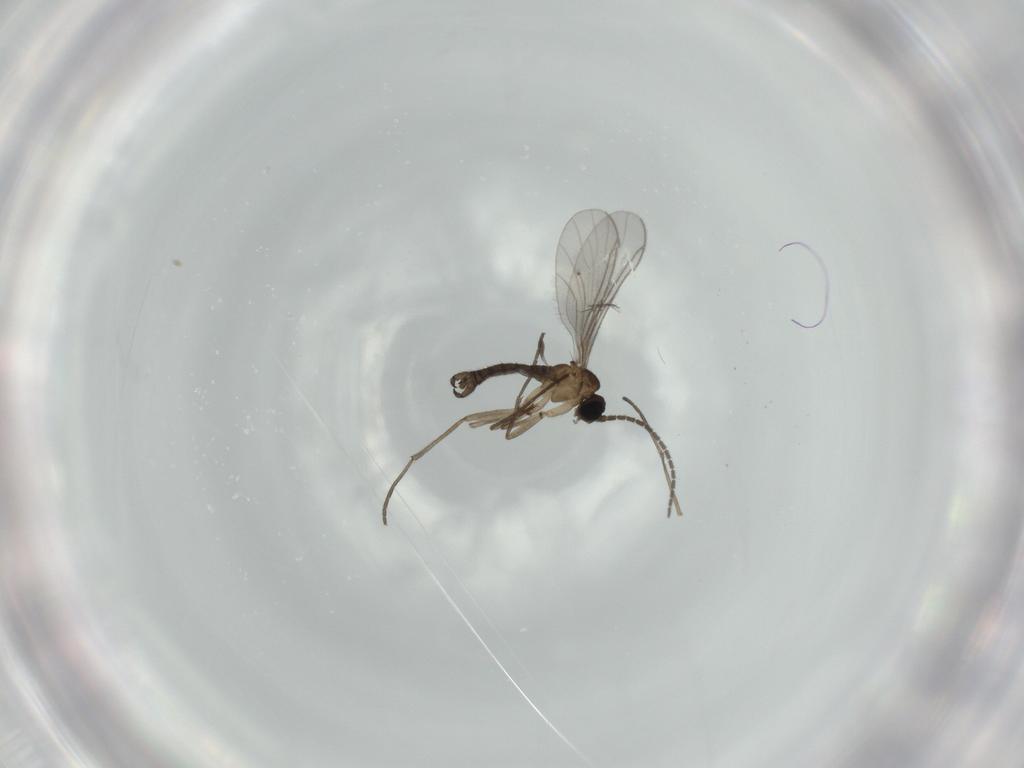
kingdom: Animalia
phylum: Arthropoda
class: Insecta
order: Diptera
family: Sciaridae
